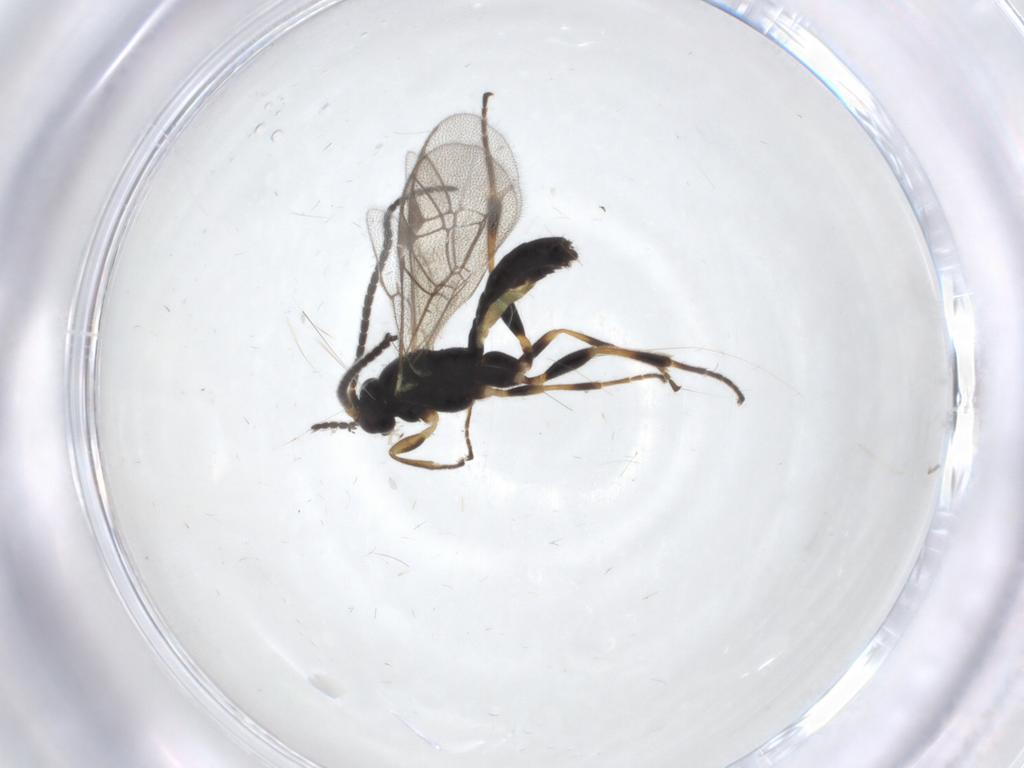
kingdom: Animalia
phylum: Arthropoda
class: Insecta
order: Hymenoptera
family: Ichneumonidae
